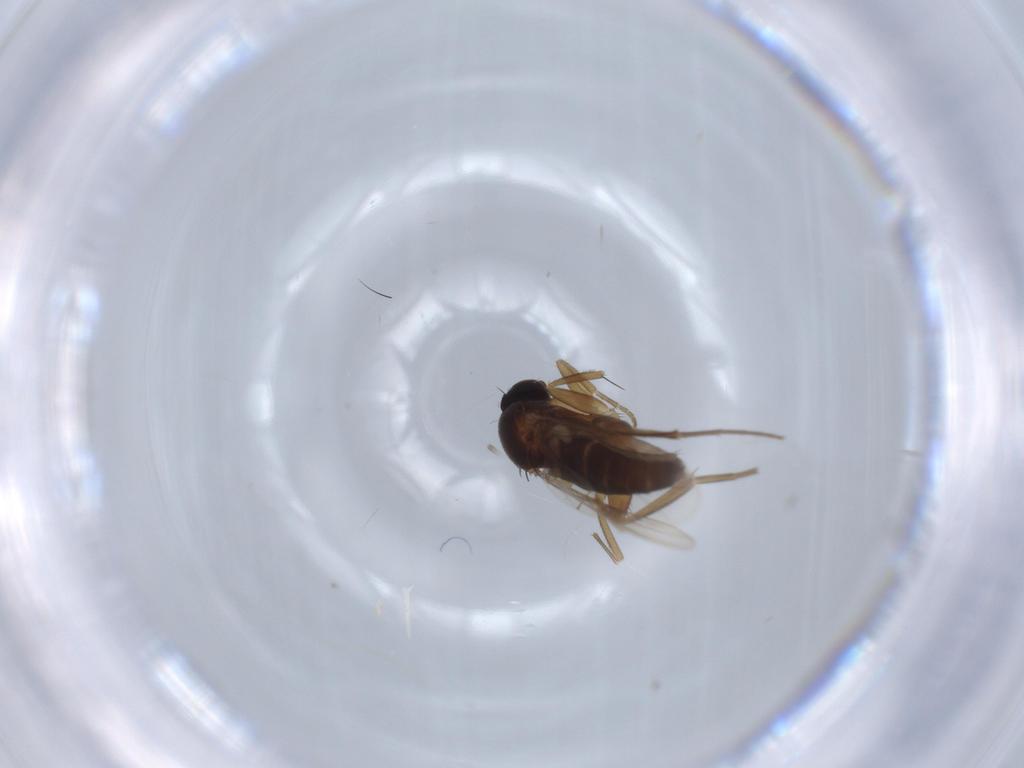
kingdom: Animalia
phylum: Arthropoda
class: Insecta
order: Diptera
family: Phoridae
